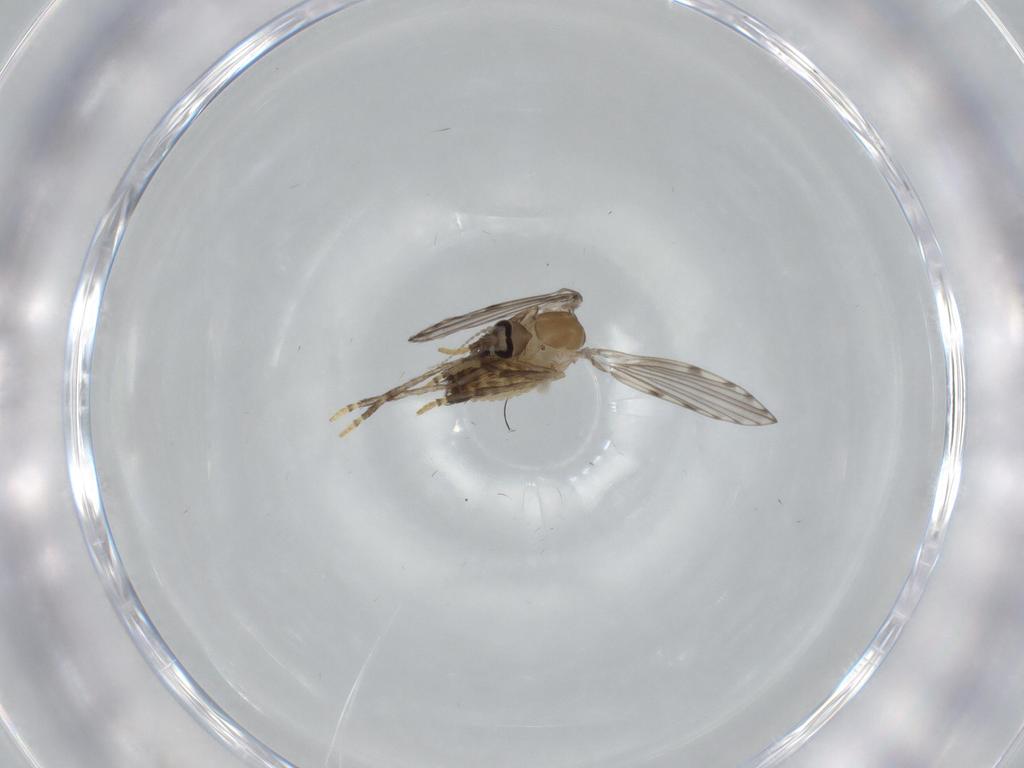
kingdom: Animalia
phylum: Arthropoda
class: Insecta
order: Diptera
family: Psychodidae
